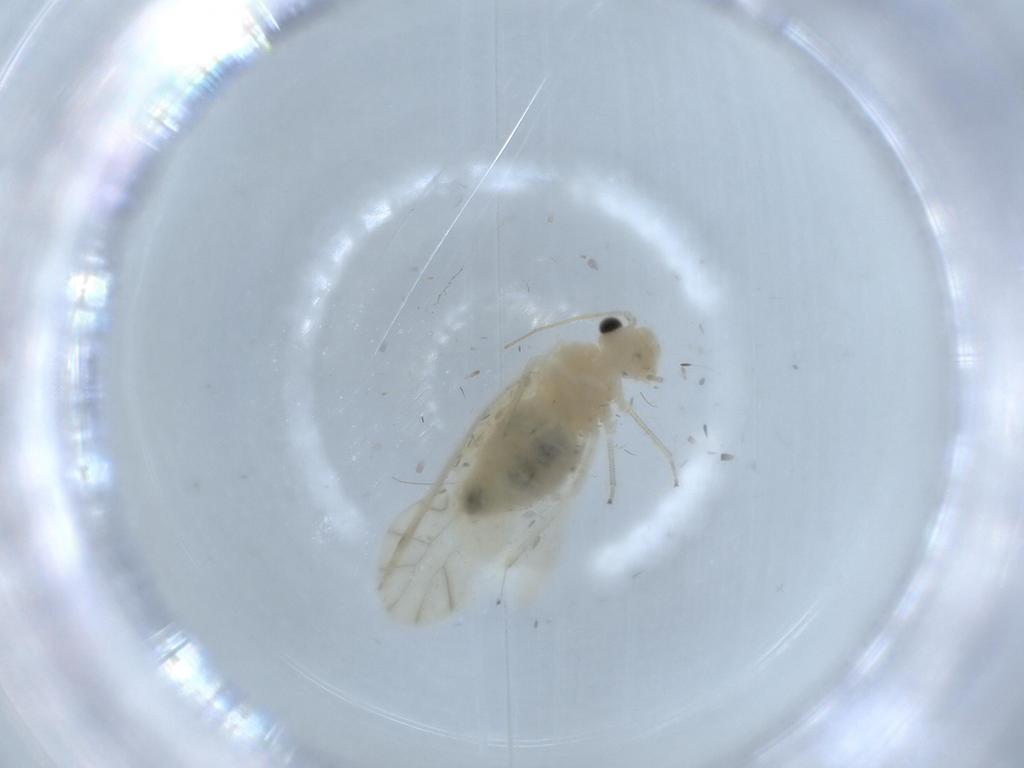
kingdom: Animalia
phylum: Arthropoda
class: Insecta
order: Psocodea
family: Caeciliusidae
